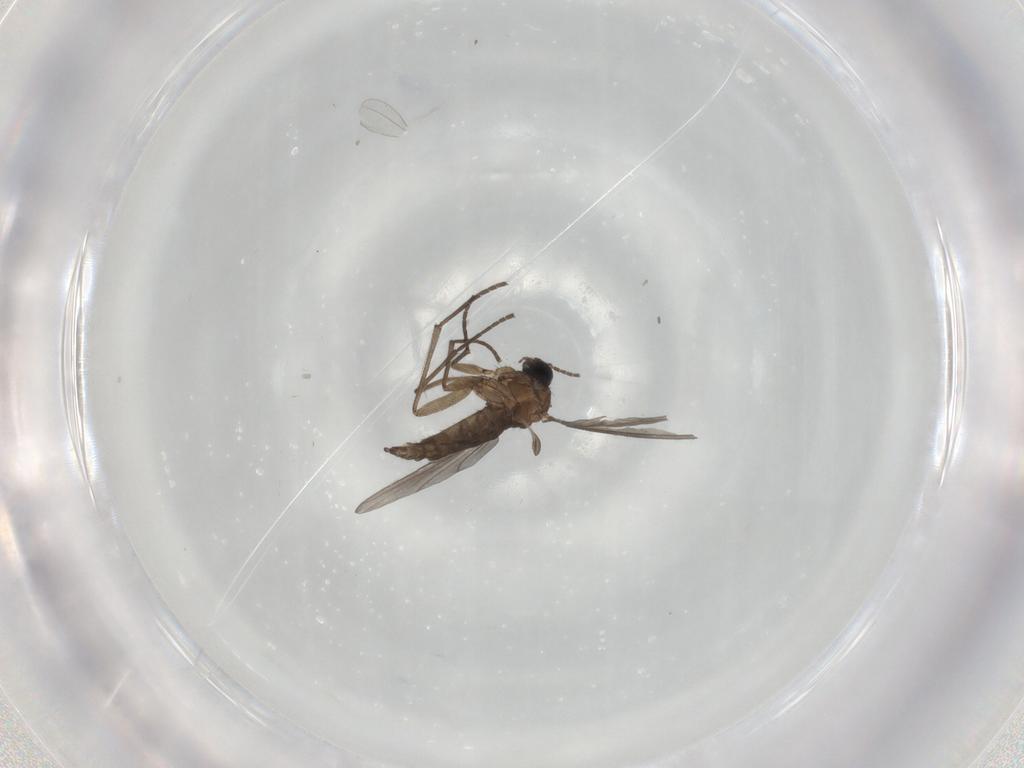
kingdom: Animalia
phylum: Arthropoda
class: Insecta
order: Diptera
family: Sciaridae
